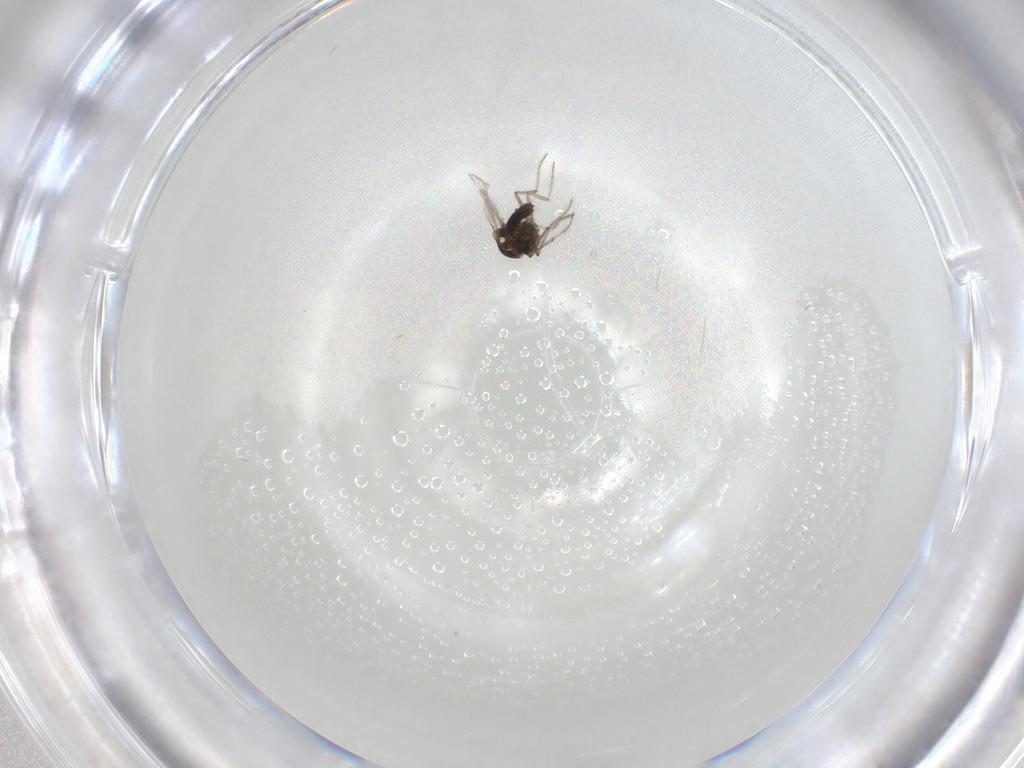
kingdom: Animalia
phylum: Arthropoda
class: Insecta
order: Diptera
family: Ceratopogonidae
